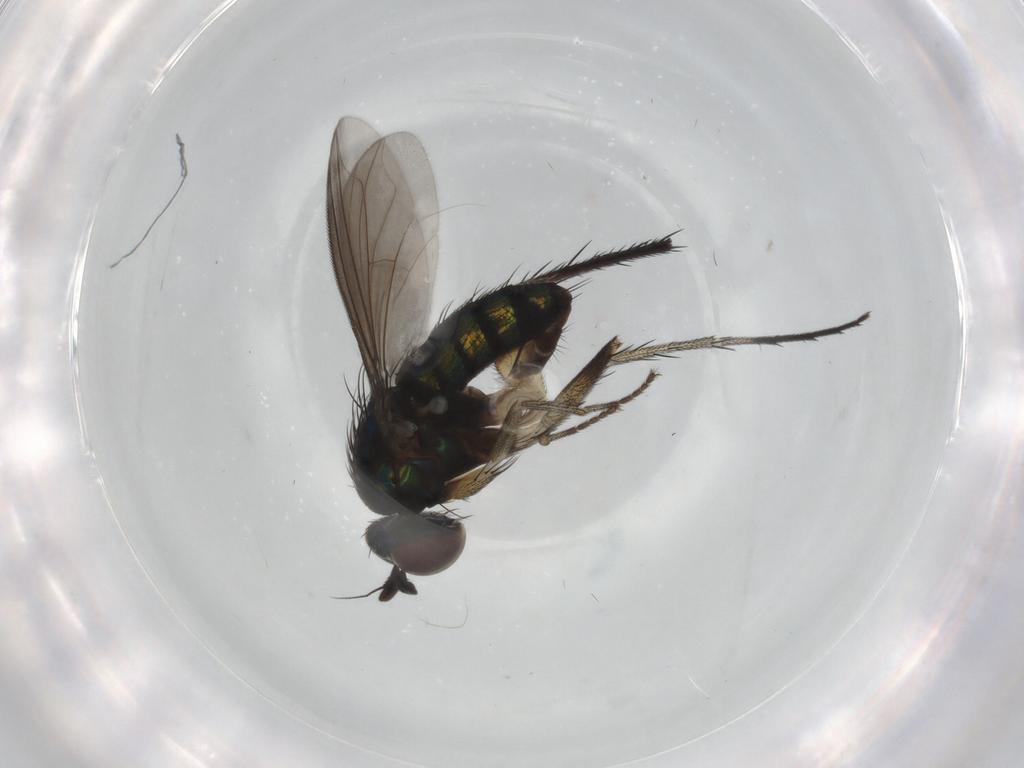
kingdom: Animalia
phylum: Arthropoda
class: Insecta
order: Diptera
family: Dolichopodidae
